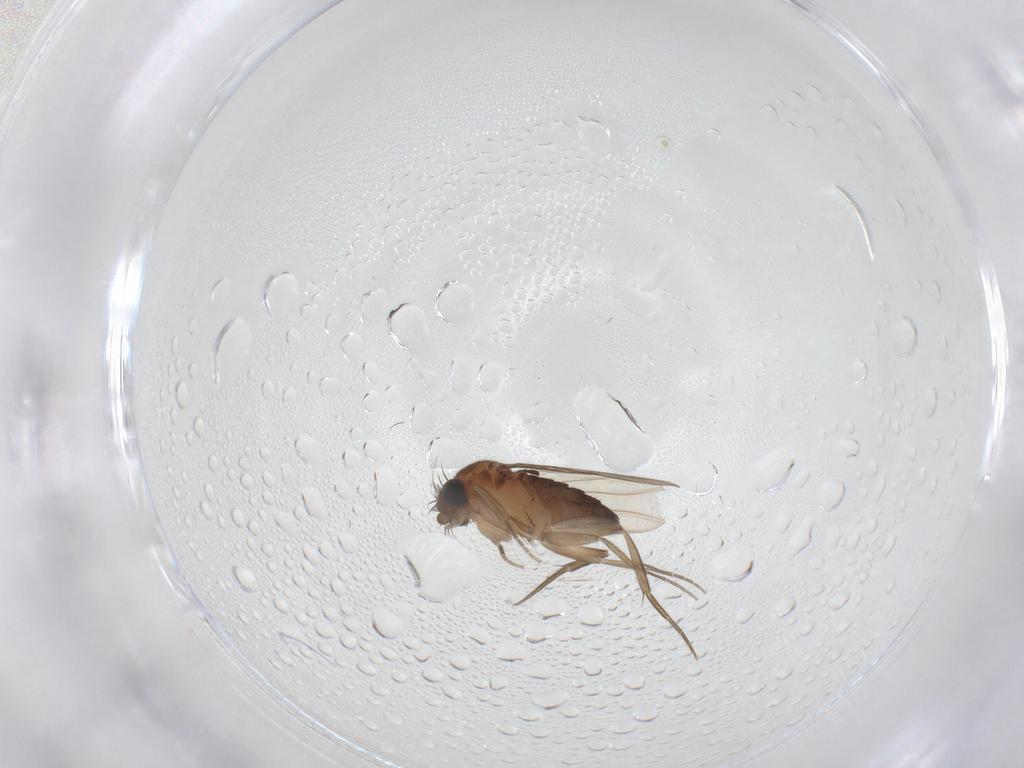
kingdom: Animalia
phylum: Arthropoda
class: Insecta
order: Diptera
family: Phoridae
